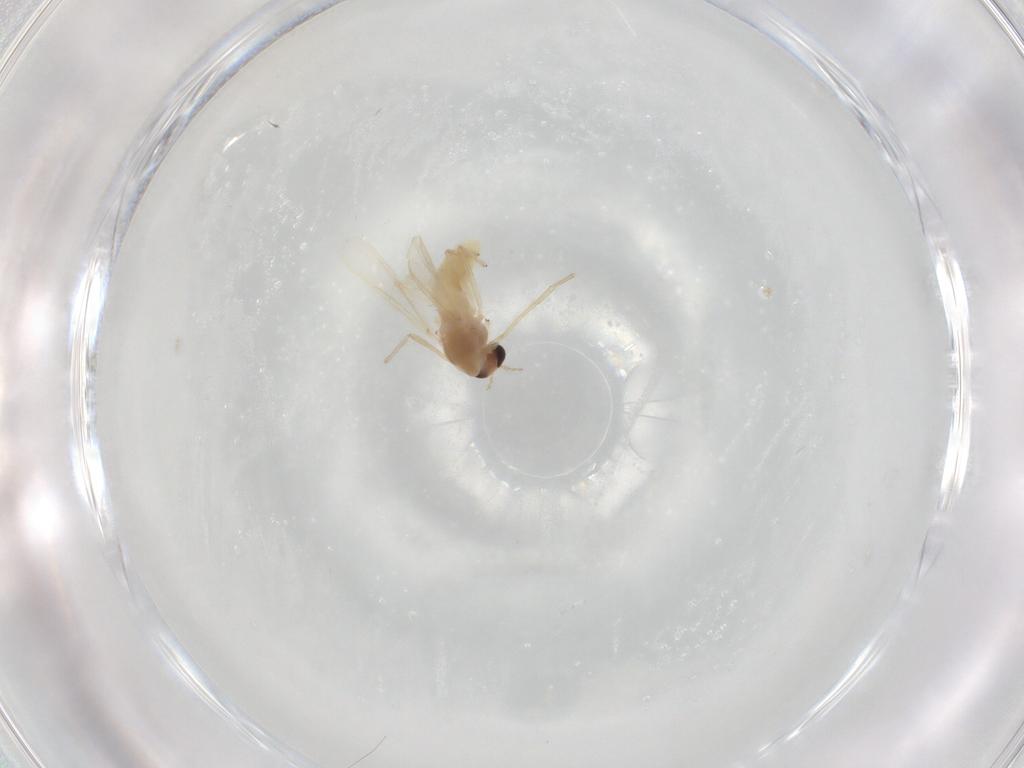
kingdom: Animalia
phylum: Arthropoda
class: Insecta
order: Diptera
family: Chironomidae
